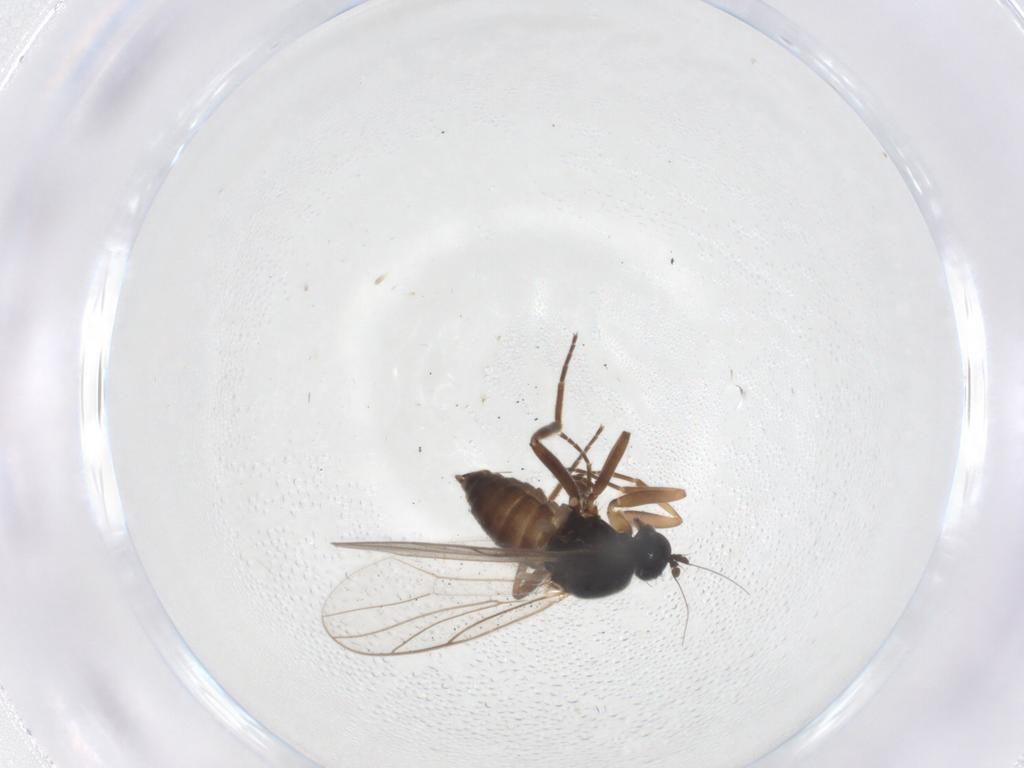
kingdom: Animalia
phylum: Arthropoda
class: Insecta
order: Diptera
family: Hybotidae
